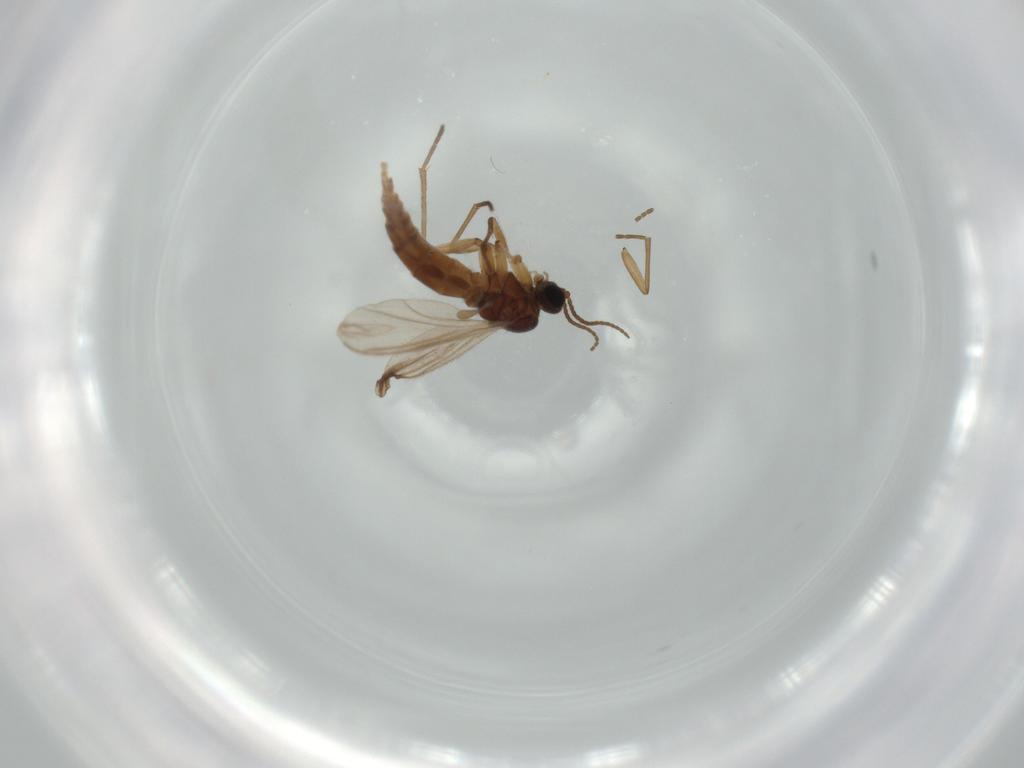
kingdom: Animalia
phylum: Arthropoda
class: Insecta
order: Diptera
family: Sciaridae
